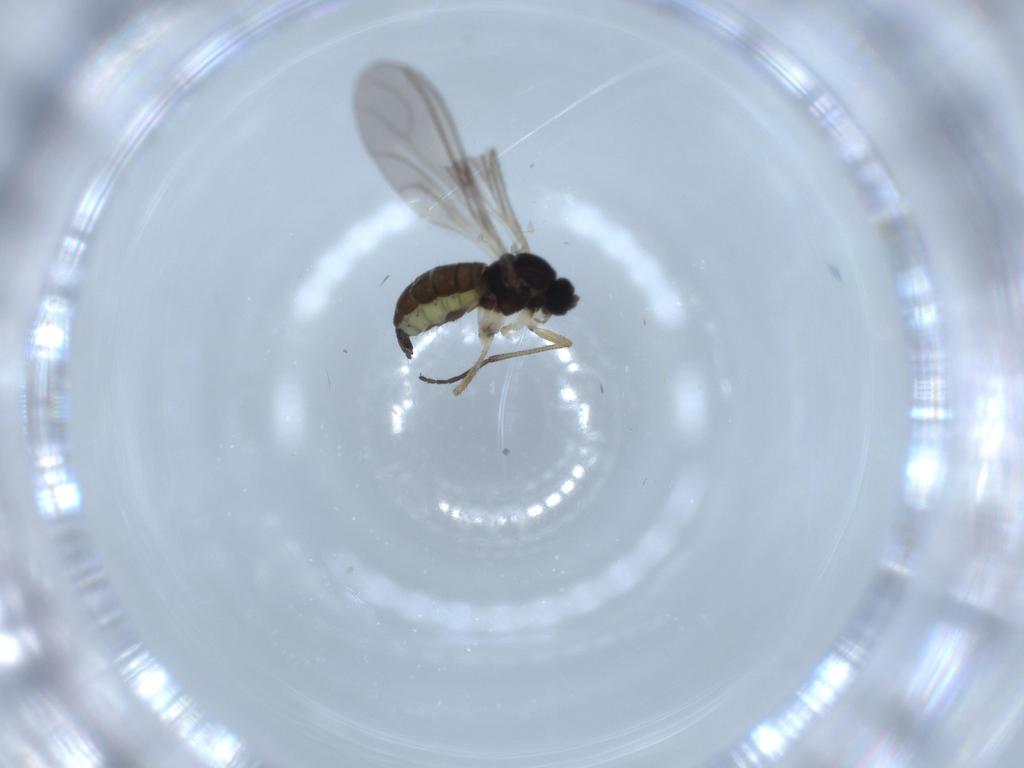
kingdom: Animalia
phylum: Arthropoda
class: Insecta
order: Diptera
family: Sciaridae
